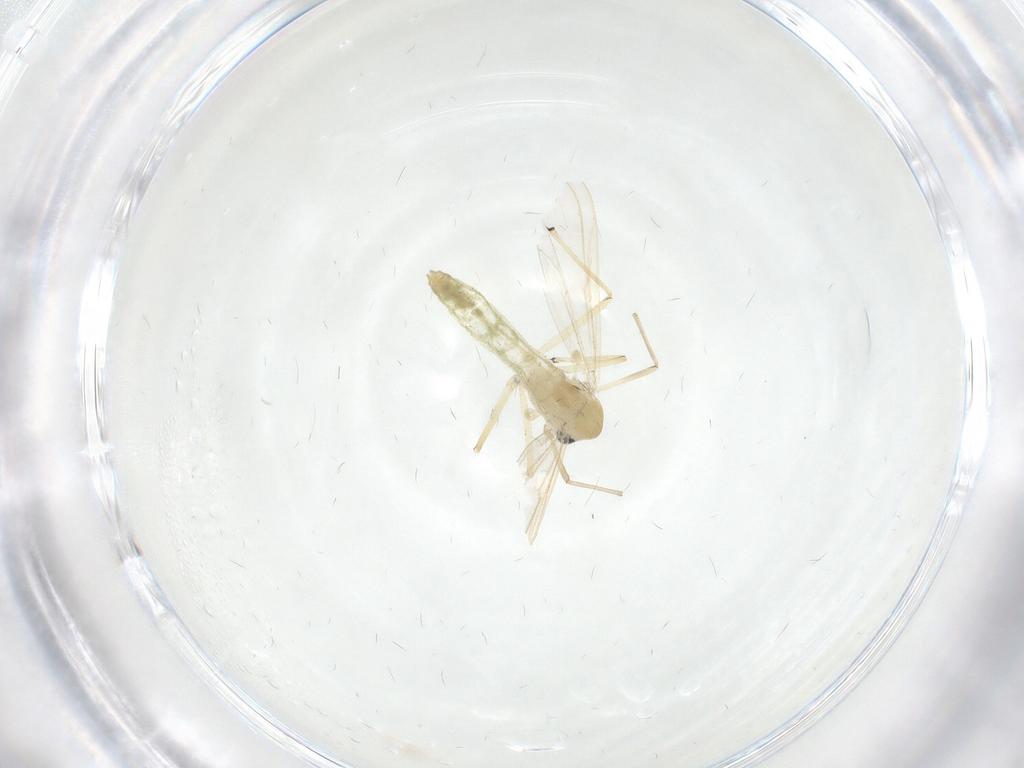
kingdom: Animalia
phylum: Arthropoda
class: Insecta
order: Diptera
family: Chironomidae
